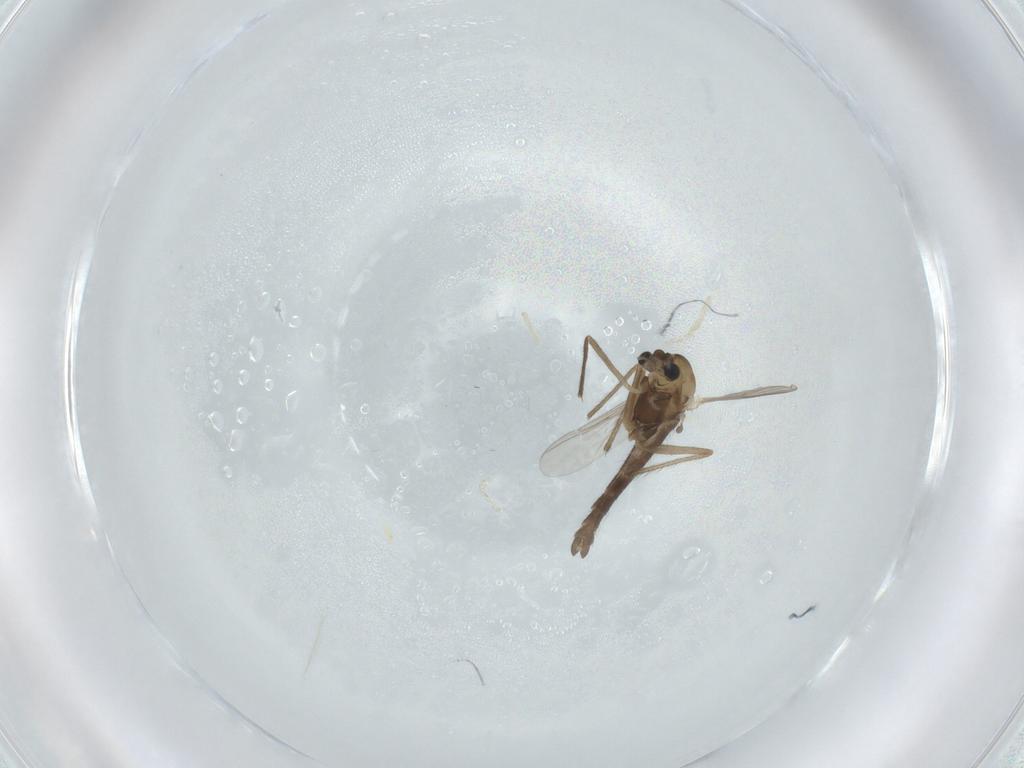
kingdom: Animalia
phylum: Arthropoda
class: Insecta
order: Diptera
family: Chironomidae
